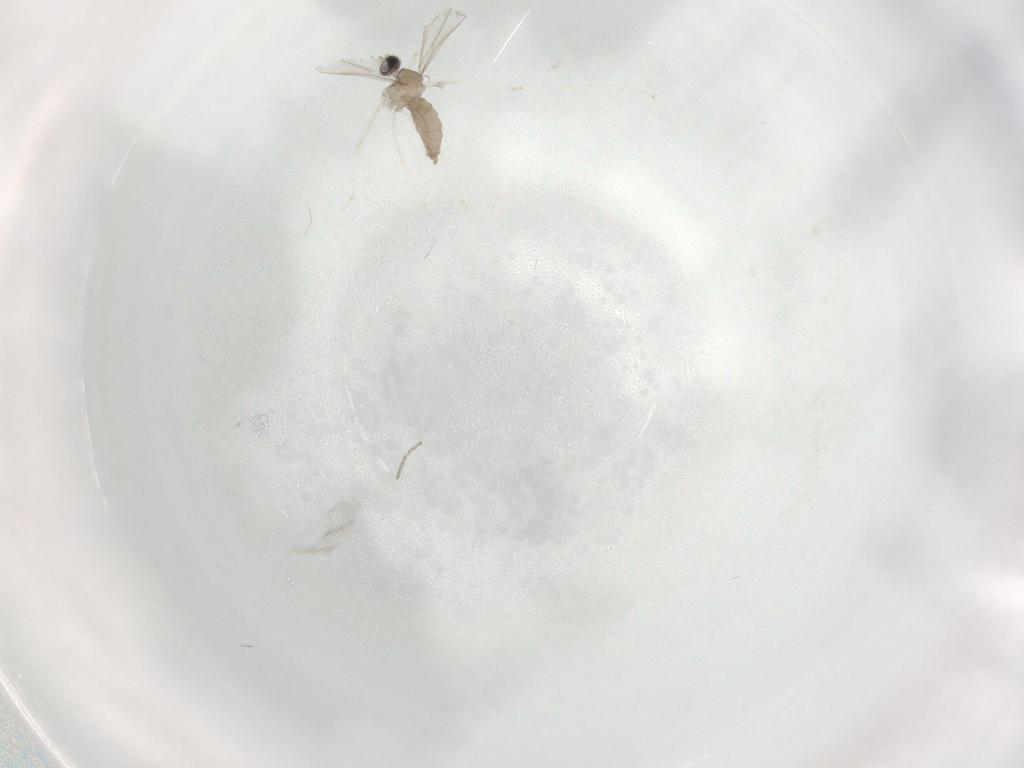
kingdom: Animalia
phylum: Arthropoda
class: Insecta
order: Diptera
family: Cecidomyiidae
